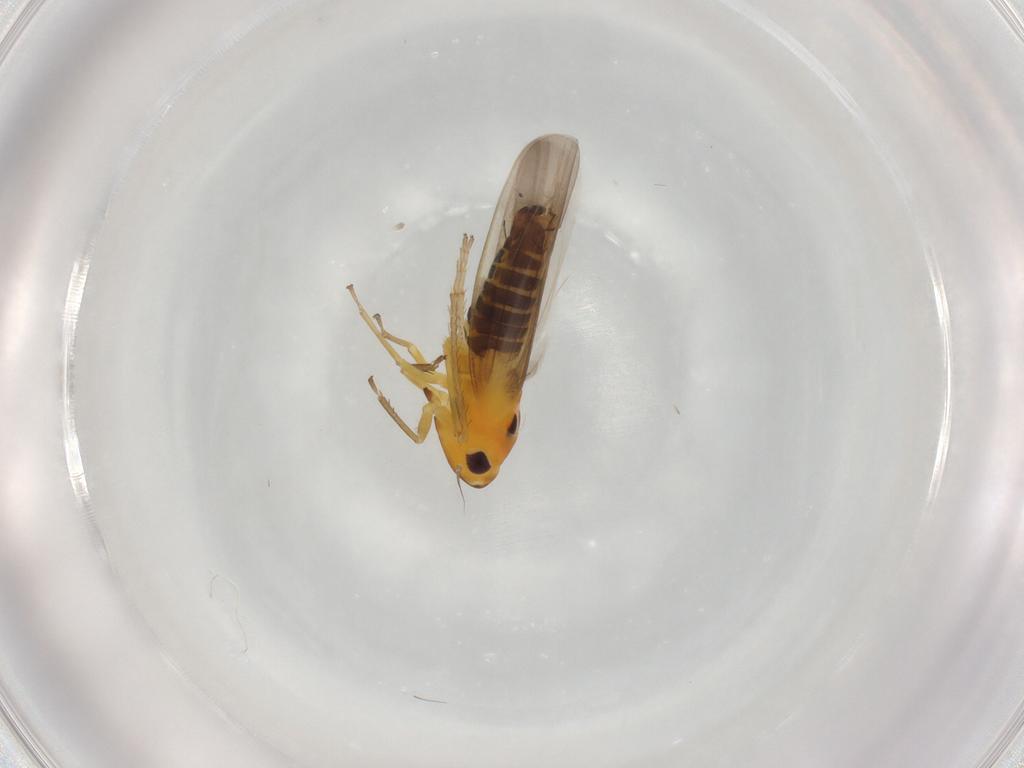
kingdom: Animalia
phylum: Arthropoda
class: Insecta
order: Hemiptera
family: Cicadellidae
